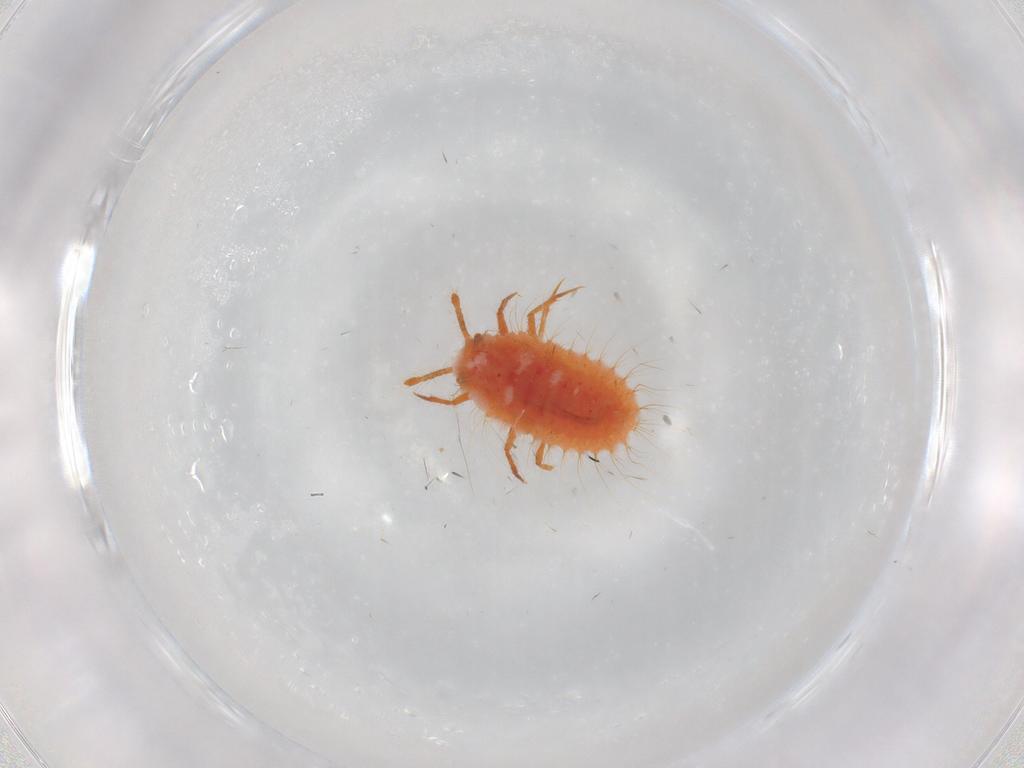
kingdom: Animalia
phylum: Arthropoda
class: Insecta
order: Hemiptera
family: Coccoidea_incertae_sedis
